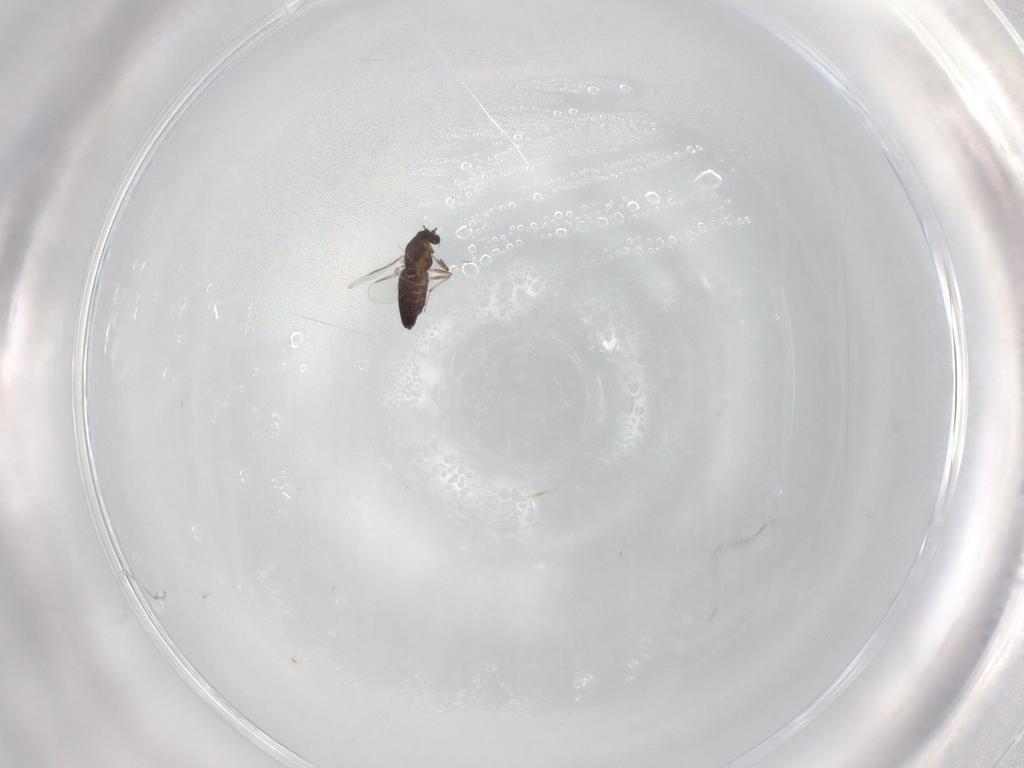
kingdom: Animalia
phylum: Arthropoda
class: Insecta
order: Diptera
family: Chironomidae
